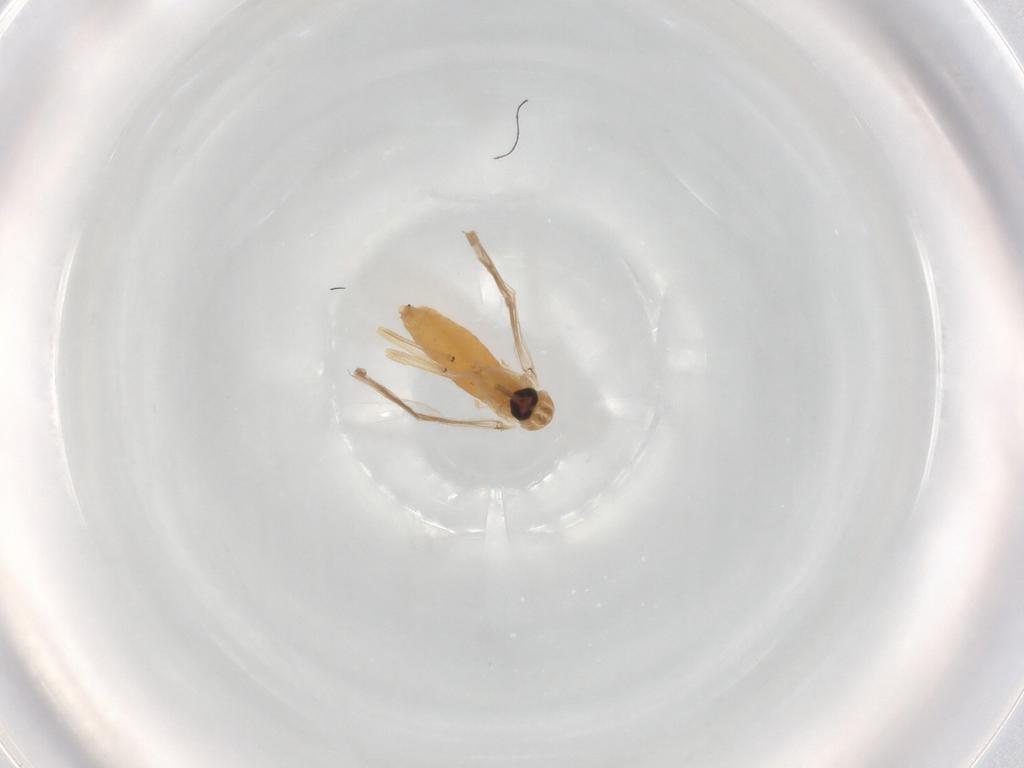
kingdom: Animalia
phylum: Arthropoda
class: Insecta
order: Diptera
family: Chironomidae
